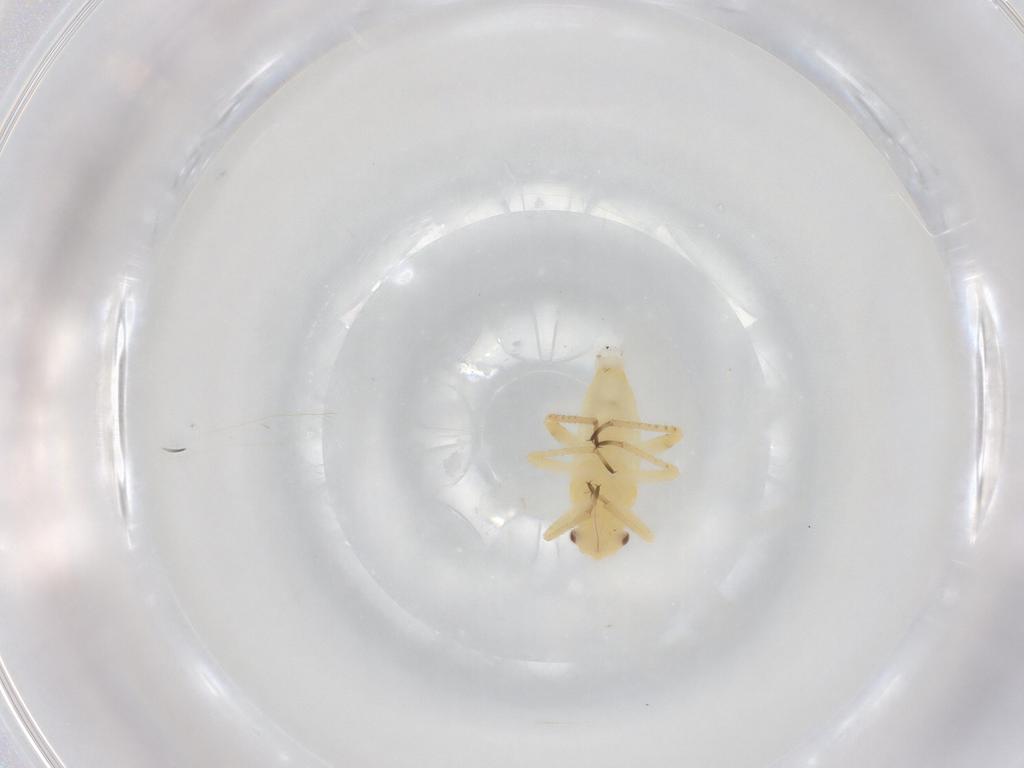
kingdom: Animalia
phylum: Arthropoda
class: Insecta
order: Hemiptera
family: Miridae
